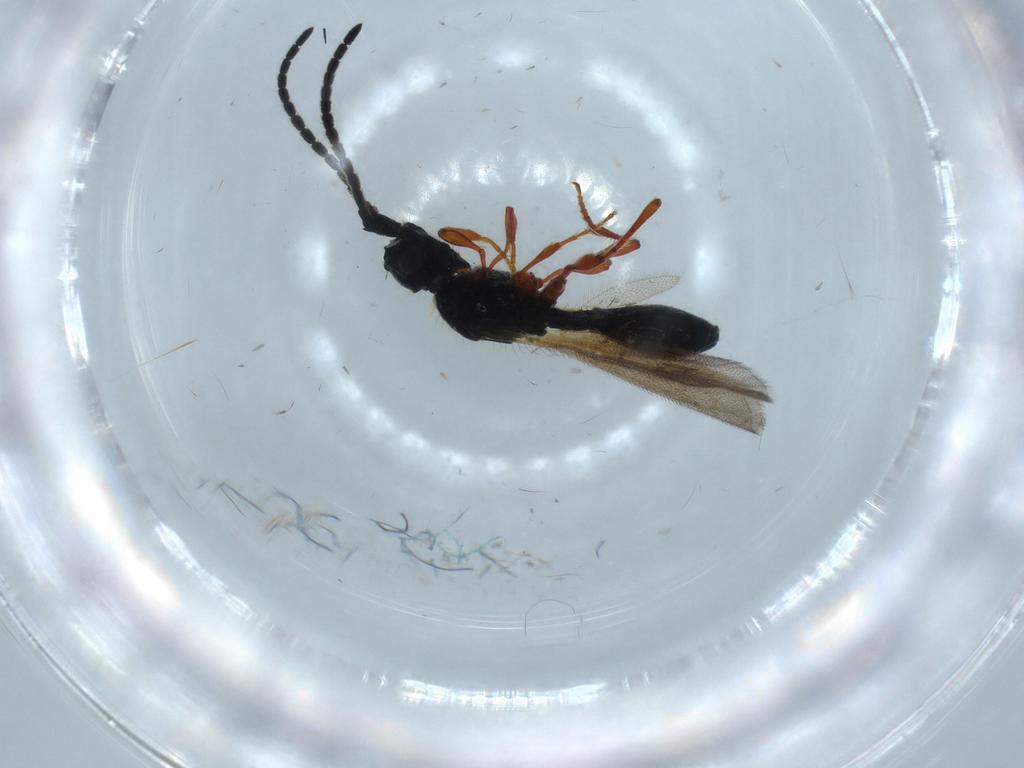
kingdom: Animalia
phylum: Arthropoda
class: Insecta
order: Hymenoptera
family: Diapriidae
